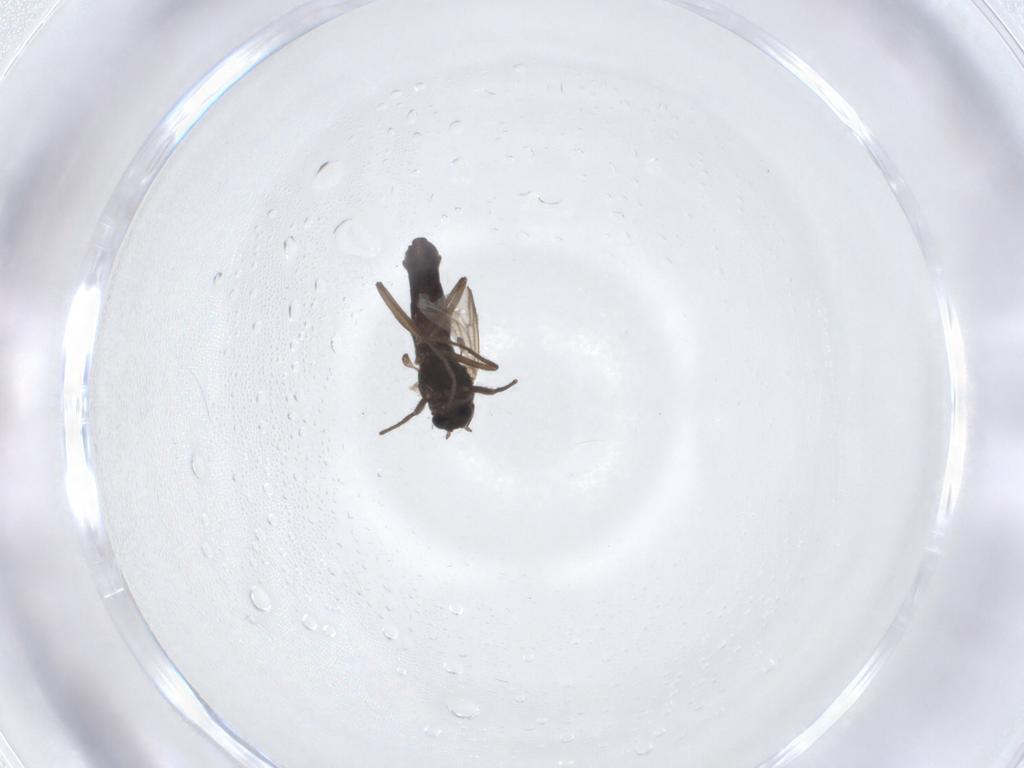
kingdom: Animalia
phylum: Arthropoda
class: Insecta
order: Diptera
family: Chironomidae
